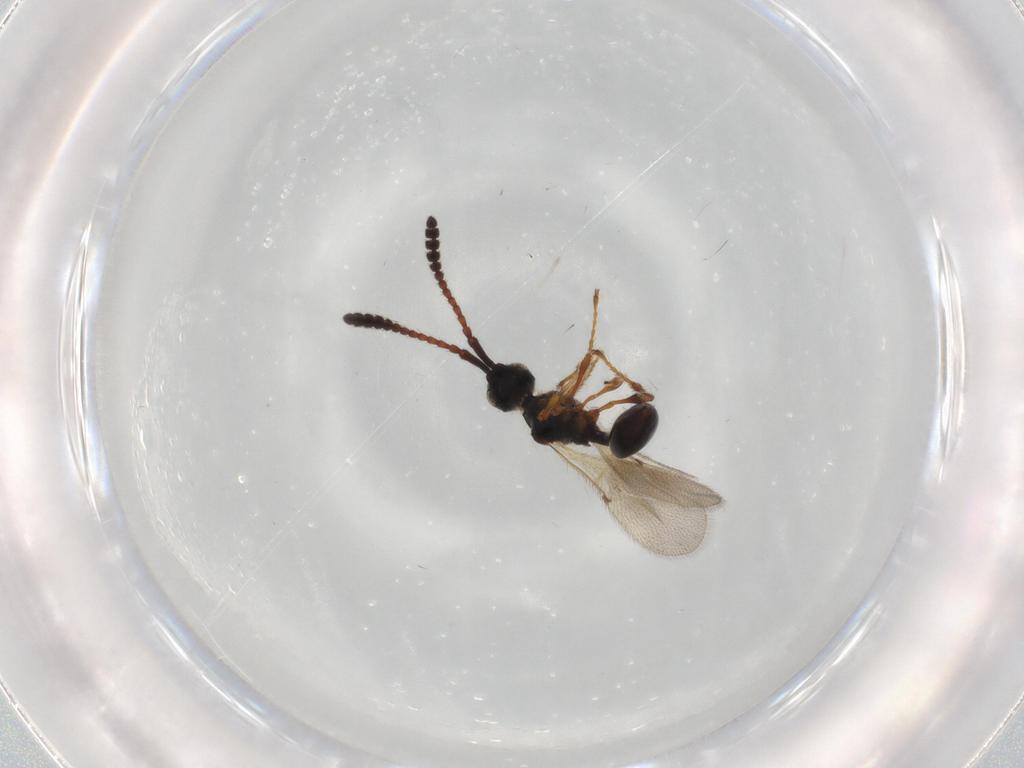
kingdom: Animalia
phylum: Arthropoda
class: Insecta
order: Hymenoptera
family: Diapriidae
